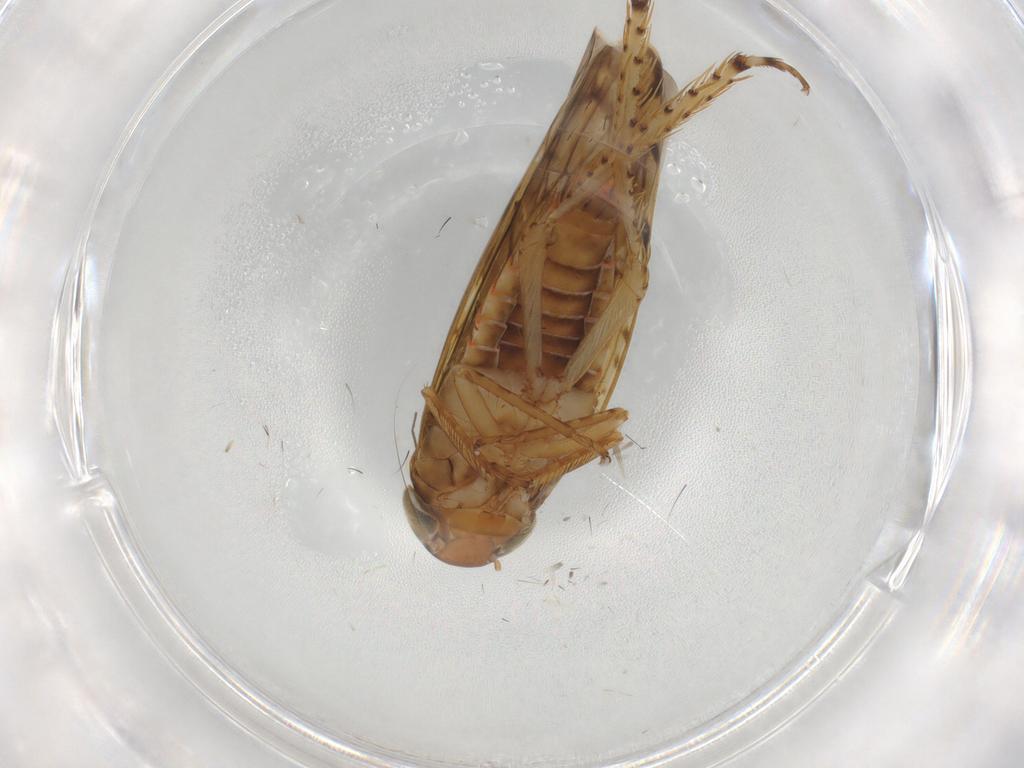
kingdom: Animalia
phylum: Arthropoda
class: Insecta
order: Hemiptera
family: Cicadellidae
